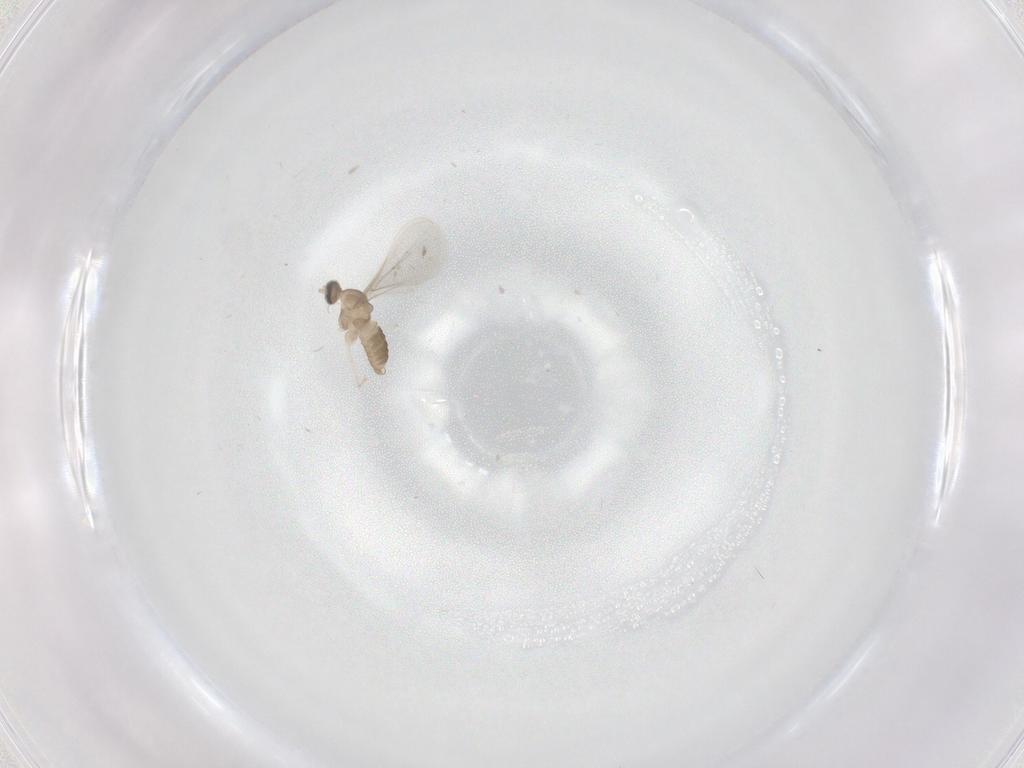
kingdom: Animalia
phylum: Arthropoda
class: Insecta
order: Diptera
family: Cecidomyiidae
